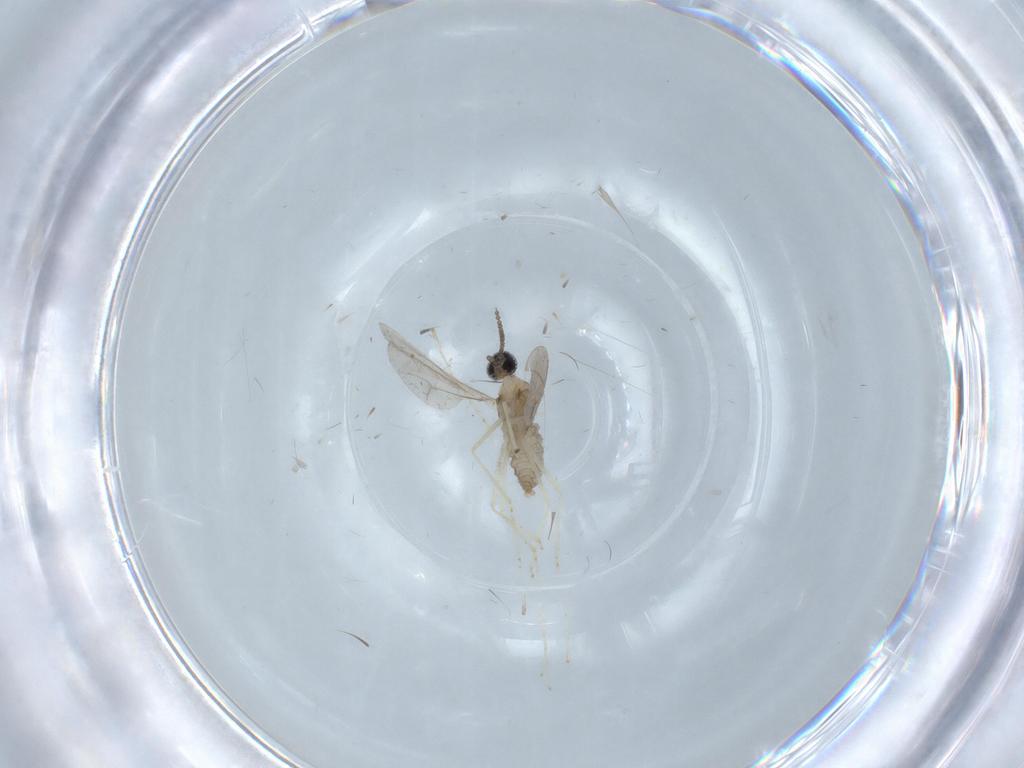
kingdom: Animalia
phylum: Arthropoda
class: Insecta
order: Diptera
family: Cecidomyiidae
